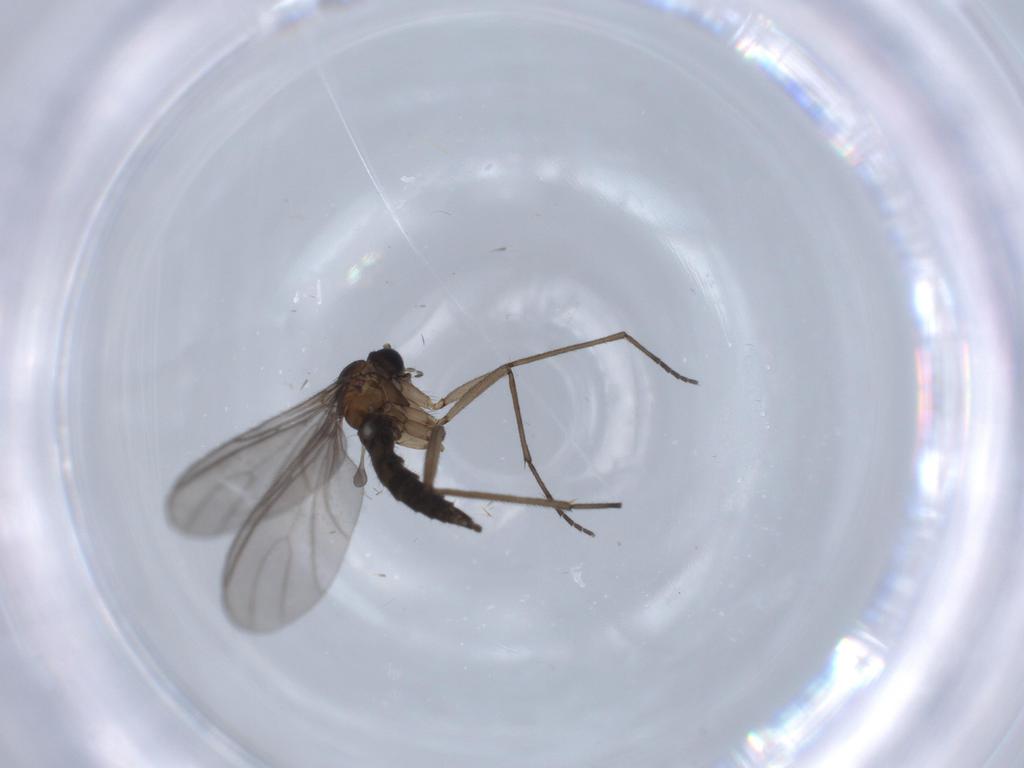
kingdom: Animalia
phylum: Arthropoda
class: Insecta
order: Diptera
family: Sciaridae
